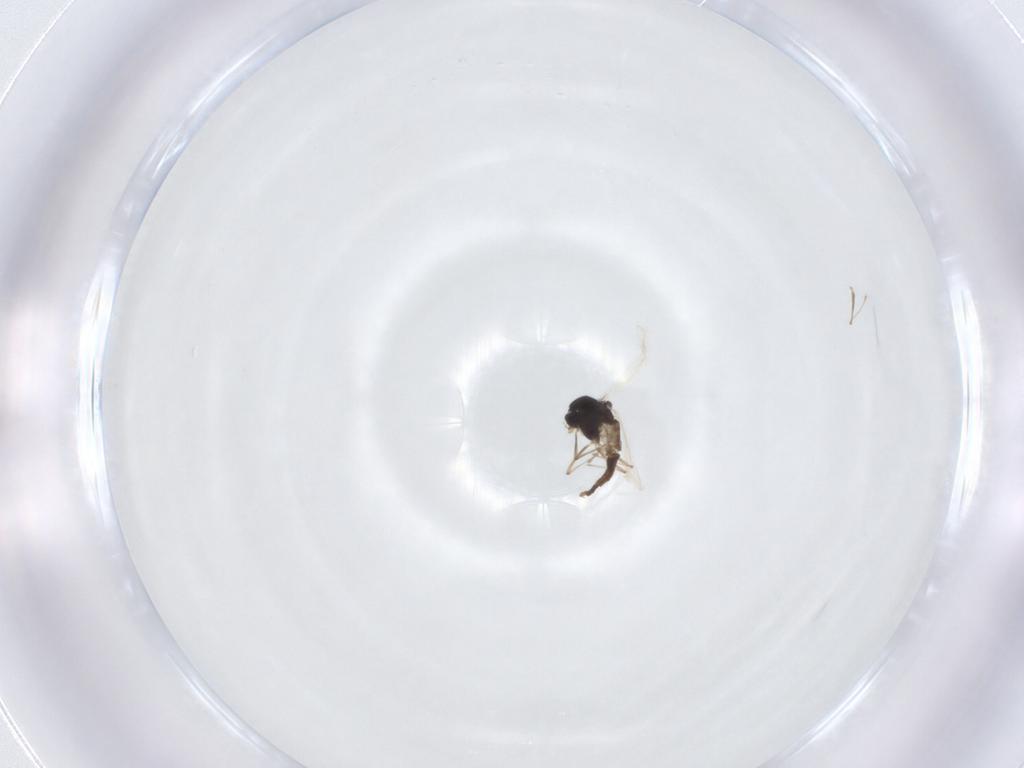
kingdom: Animalia
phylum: Arthropoda
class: Insecta
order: Diptera
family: Chironomidae
